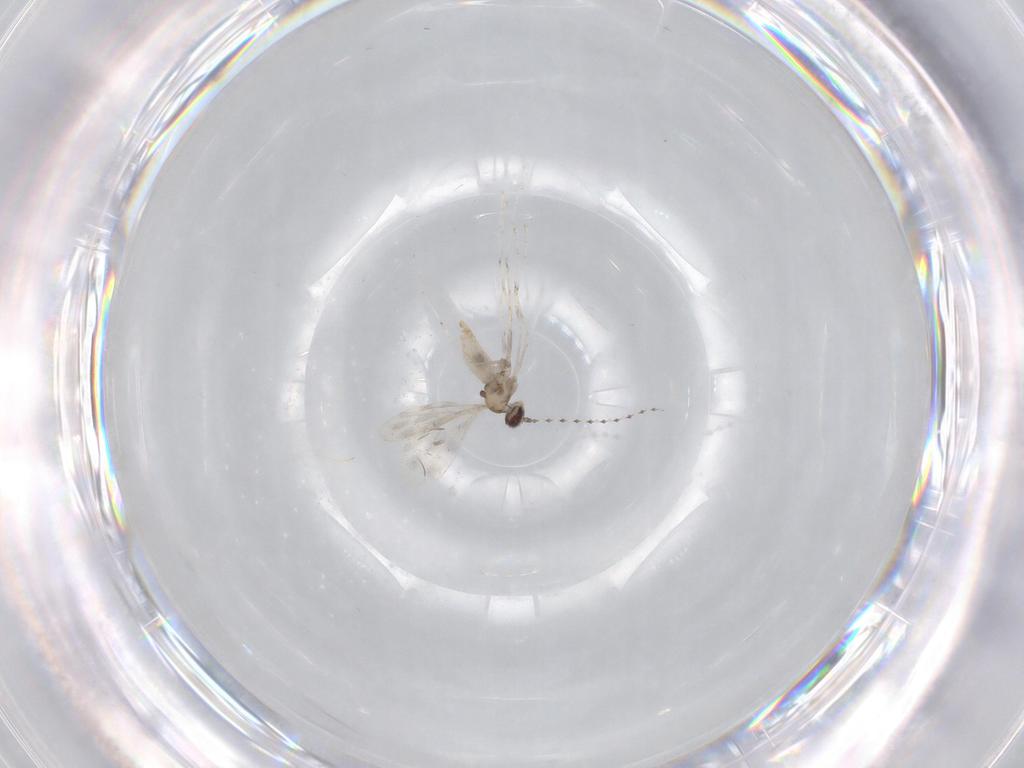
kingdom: Animalia
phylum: Arthropoda
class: Insecta
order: Diptera
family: Cecidomyiidae
